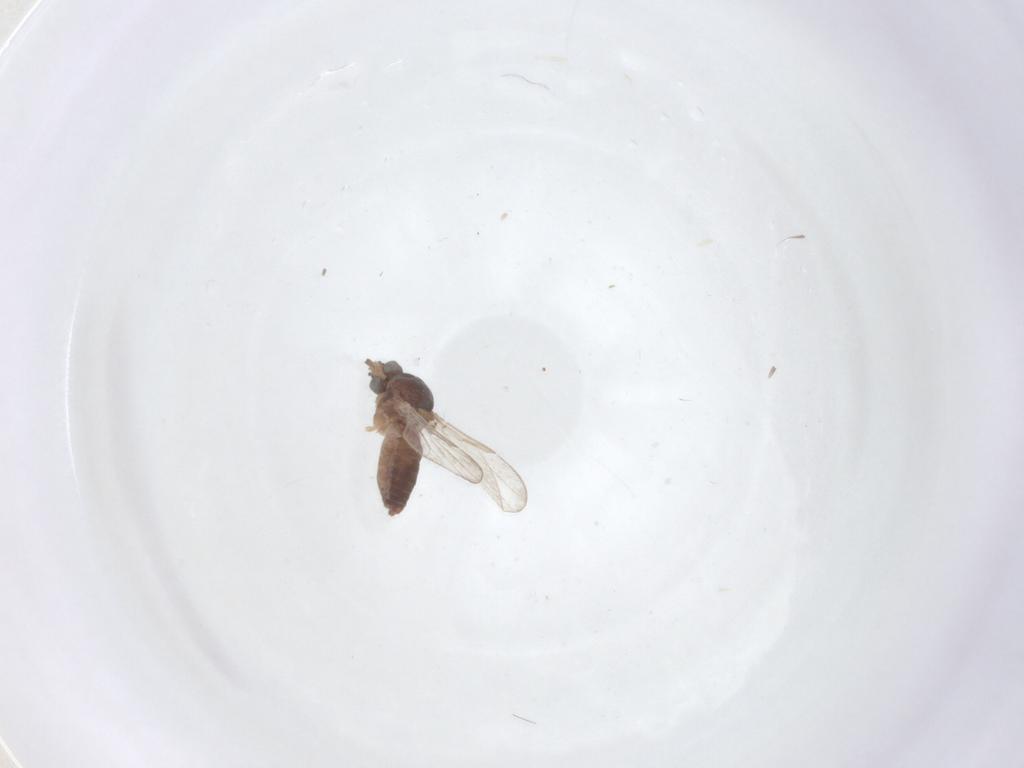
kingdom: Animalia
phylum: Arthropoda
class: Insecta
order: Diptera
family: Ceratopogonidae
